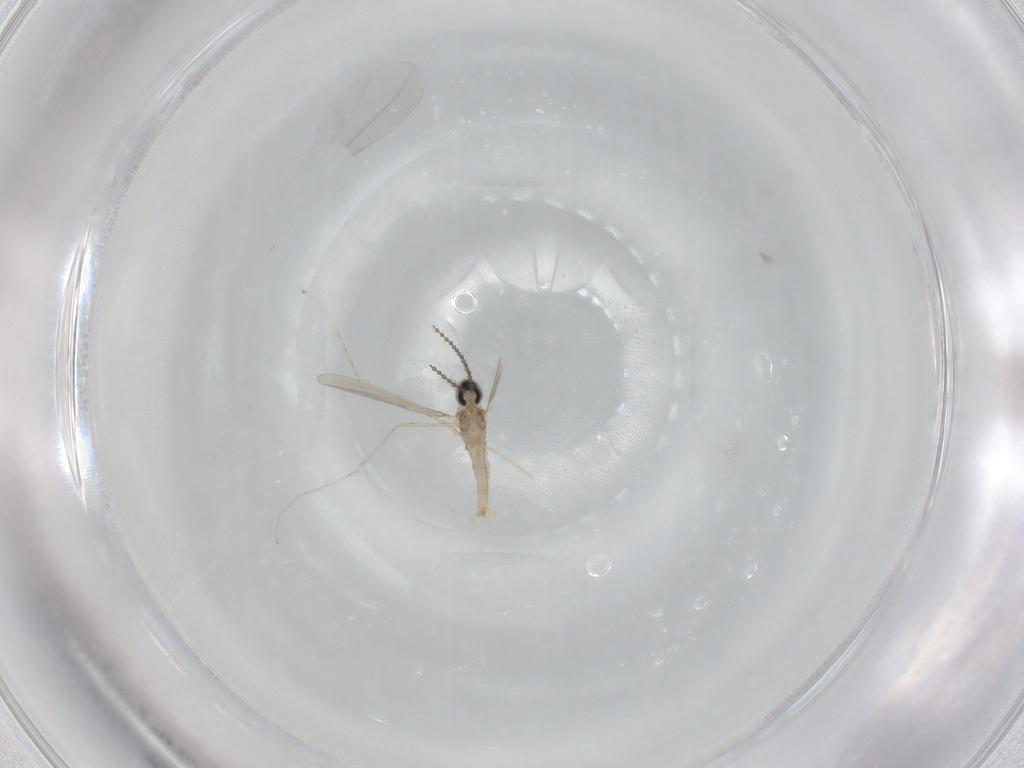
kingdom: Animalia
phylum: Arthropoda
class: Insecta
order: Diptera
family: Cecidomyiidae
